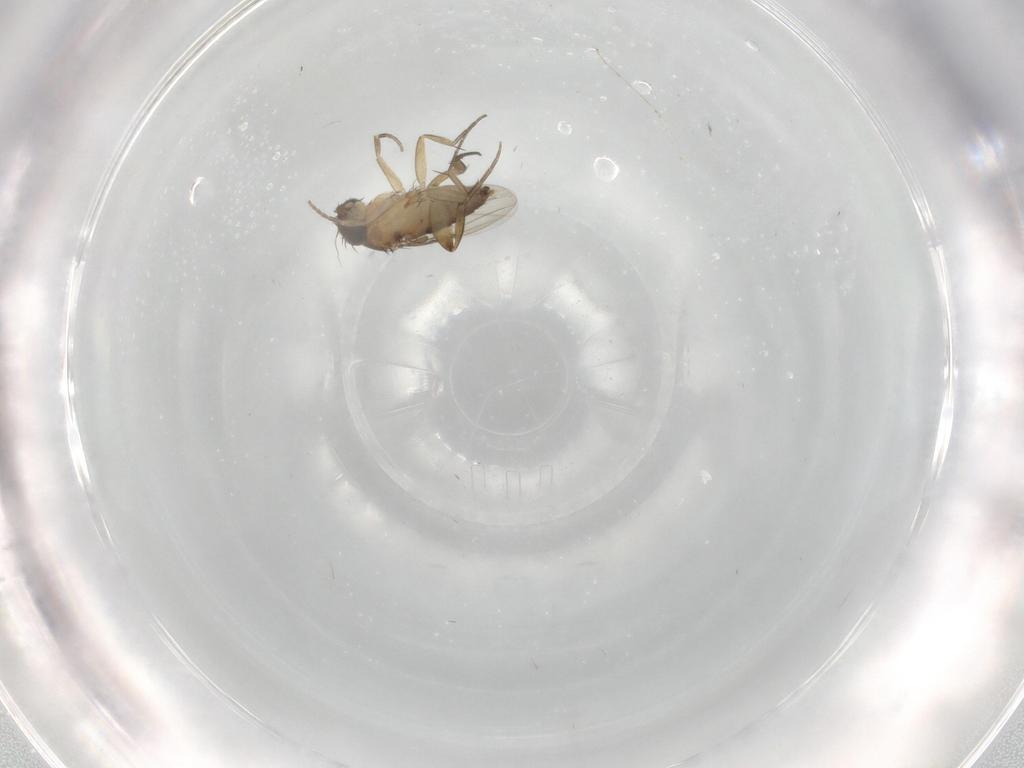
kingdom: Animalia
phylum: Arthropoda
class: Insecta
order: Diptera
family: Phoridae
